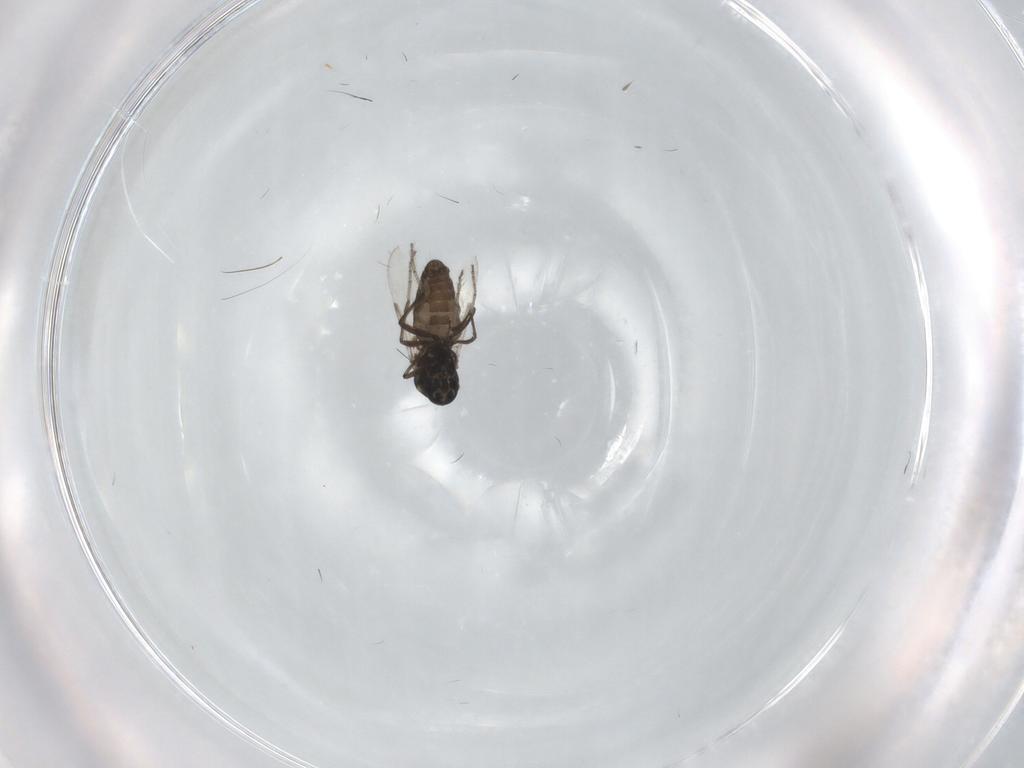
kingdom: Animalia
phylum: Arthropoda
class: Insecta
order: Diptera
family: Ceratopogonidae
